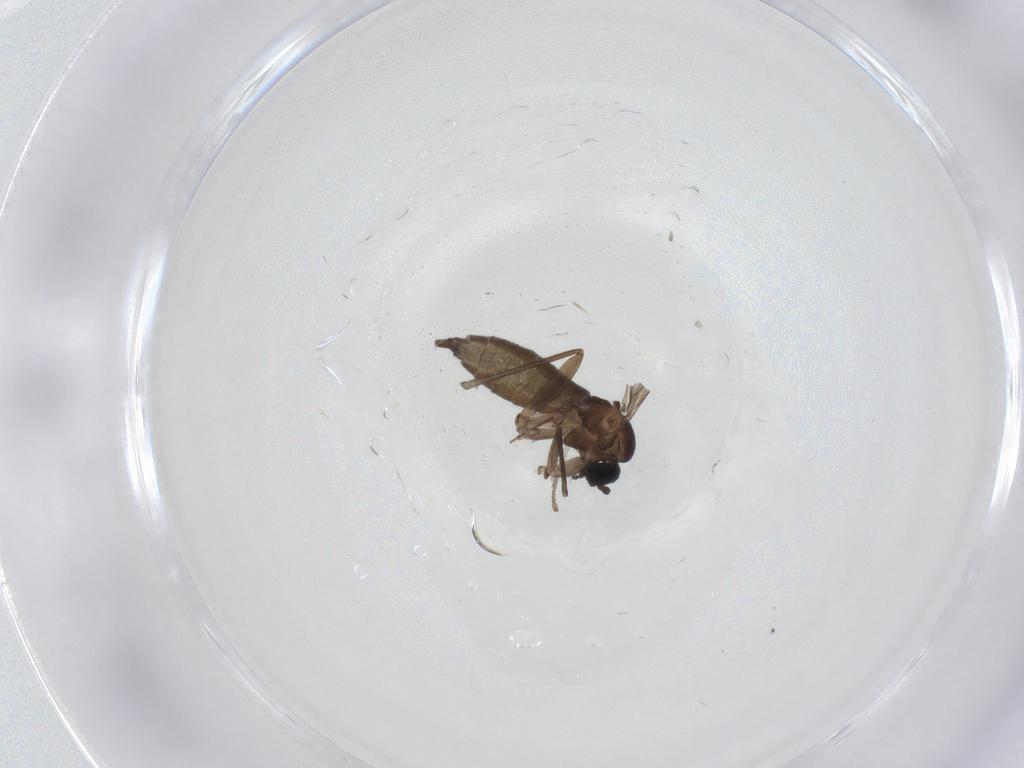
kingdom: Animalia
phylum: Arthropoda
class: Insecta
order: Diptera
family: Sciaridae
